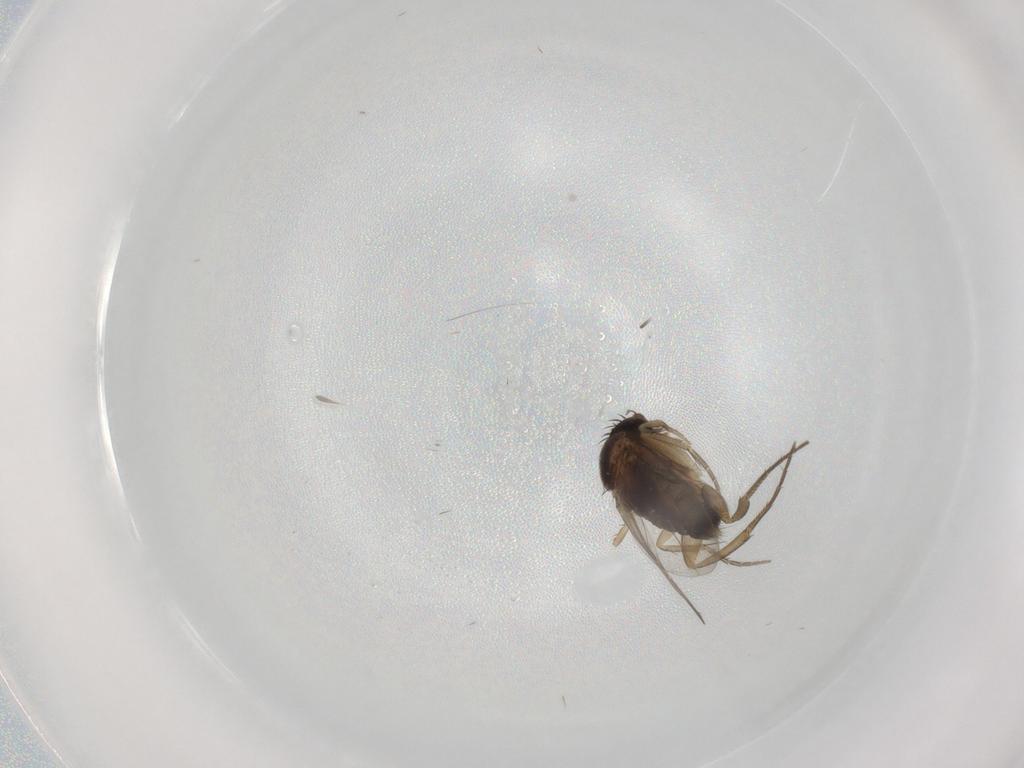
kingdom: Animalia
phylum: Arthropoda
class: Insecta
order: Diptera
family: Phoridae
